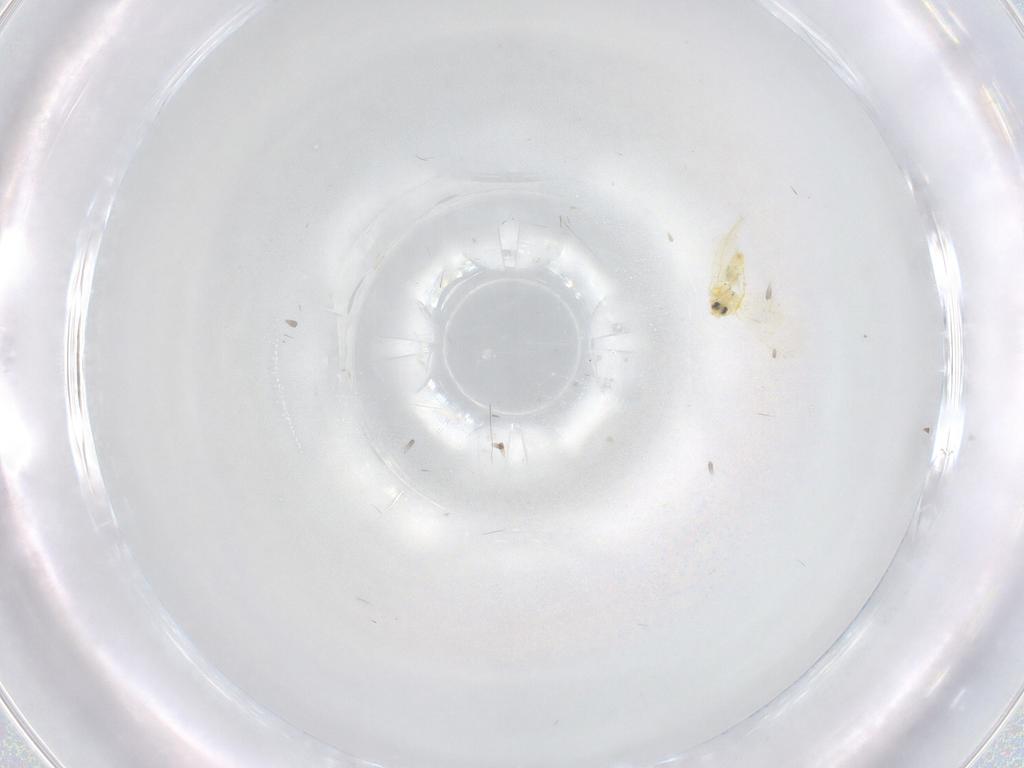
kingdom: Animalia
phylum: Arthropoda
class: Insecta
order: Hemiptera
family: Aleyrodidae
